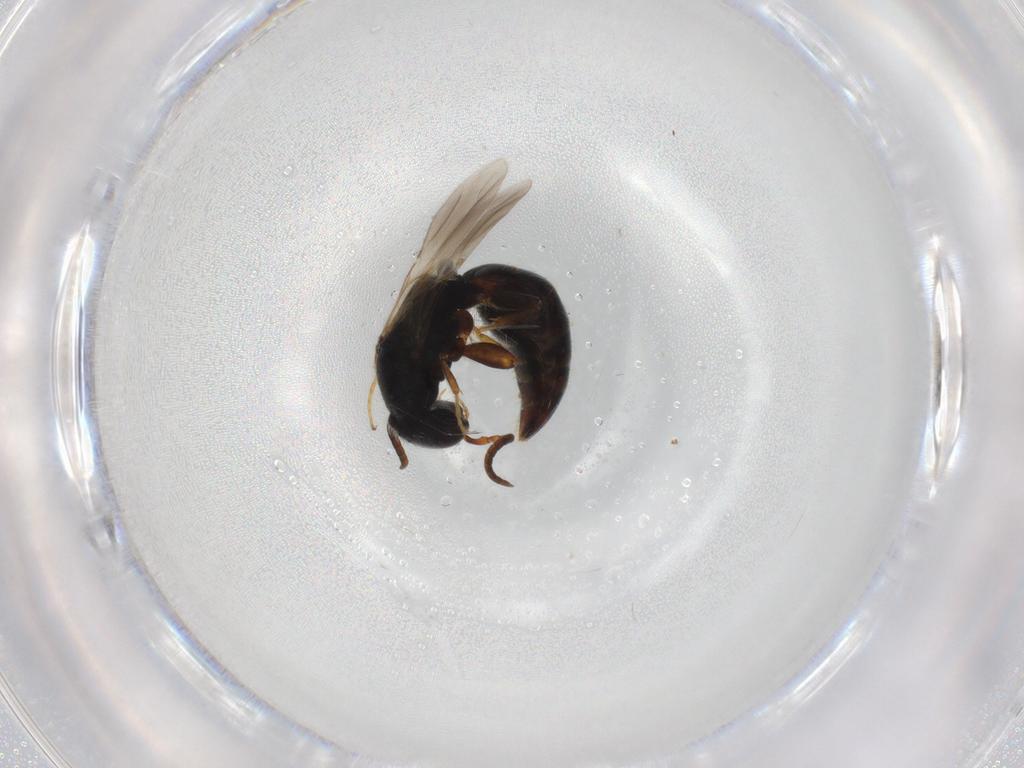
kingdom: Animalia
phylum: Arthropoda
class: Insecta
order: Hymenoptera
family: Bethylidae
